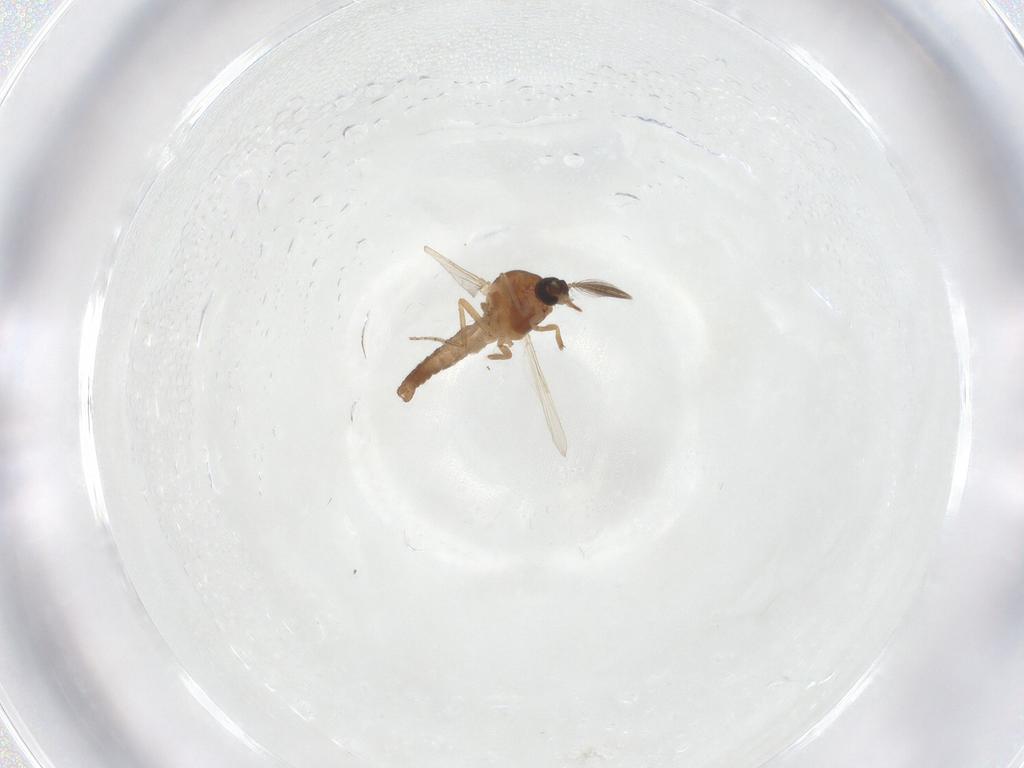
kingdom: Animalia
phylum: Arthropoda
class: Insecta
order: Diptera
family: Ceratopogonidae
